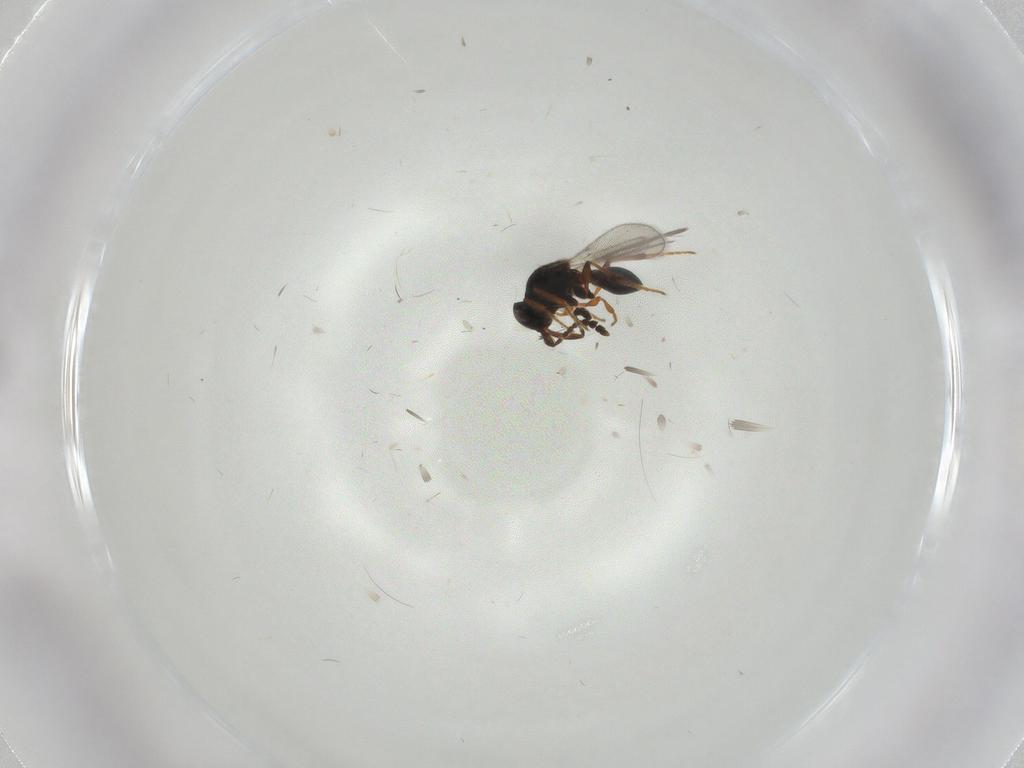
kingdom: Animalia
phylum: Arthropoda
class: Insecta
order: Hymenoptera
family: Platygastridae
